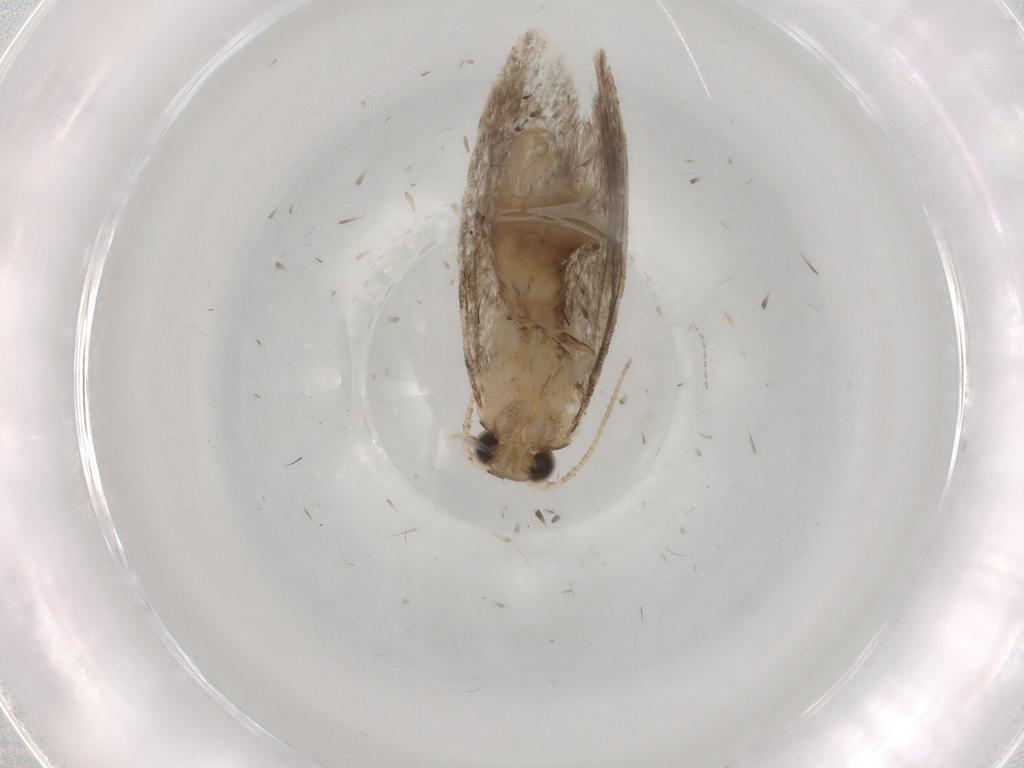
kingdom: Animalia
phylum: Arthropoda
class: Insecta
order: Lepidoptera
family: Tineidae
